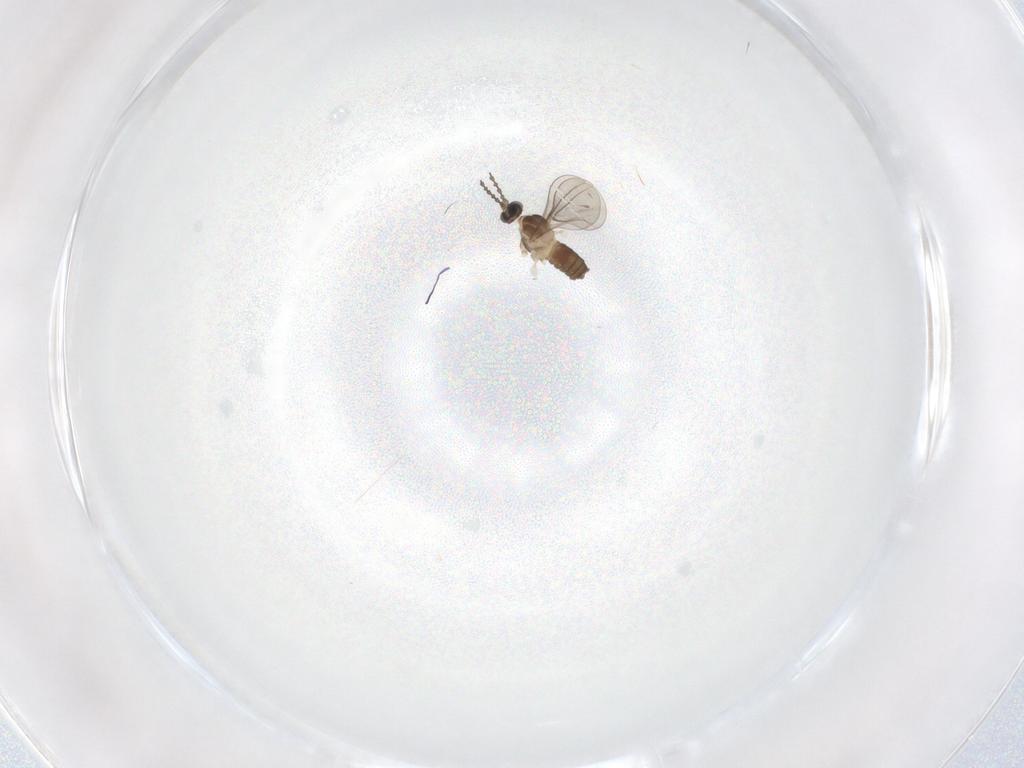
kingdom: Animalia
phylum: Arthropoda
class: Insecta
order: Diptera
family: Cecidomyiidae
